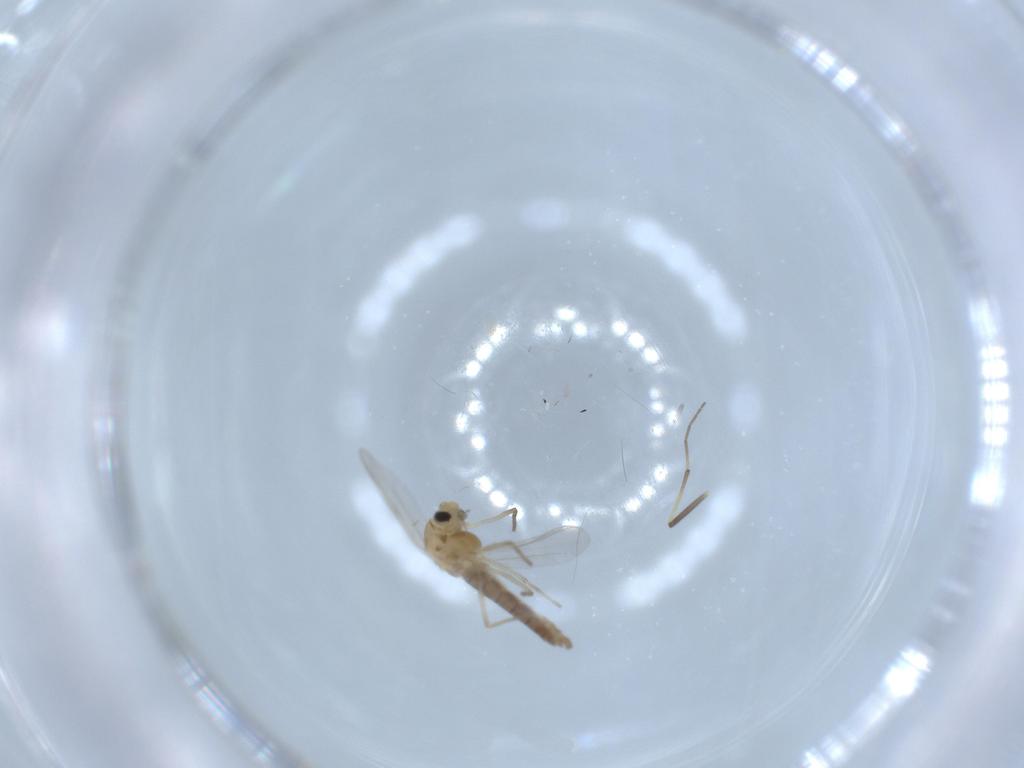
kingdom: Animalia
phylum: Arthropoda
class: Insecta
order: Diptera
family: Chironomidae
